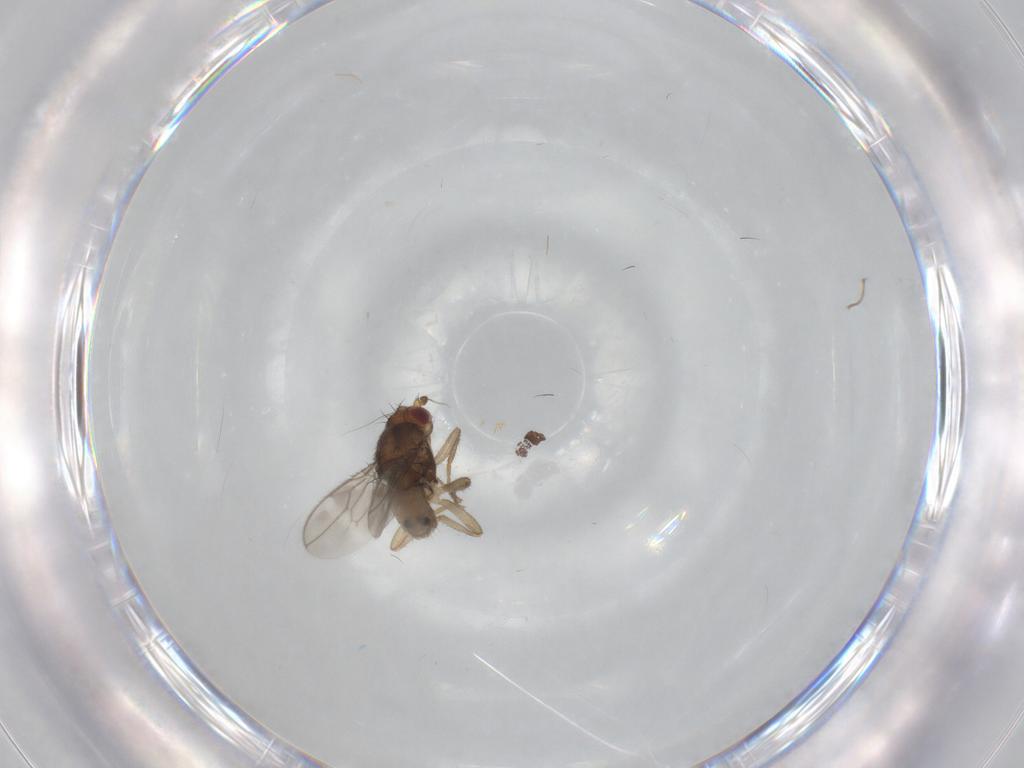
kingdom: Animalia
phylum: Arthropoda
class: Insecta
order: Diptera
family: Sphaeroceridae
